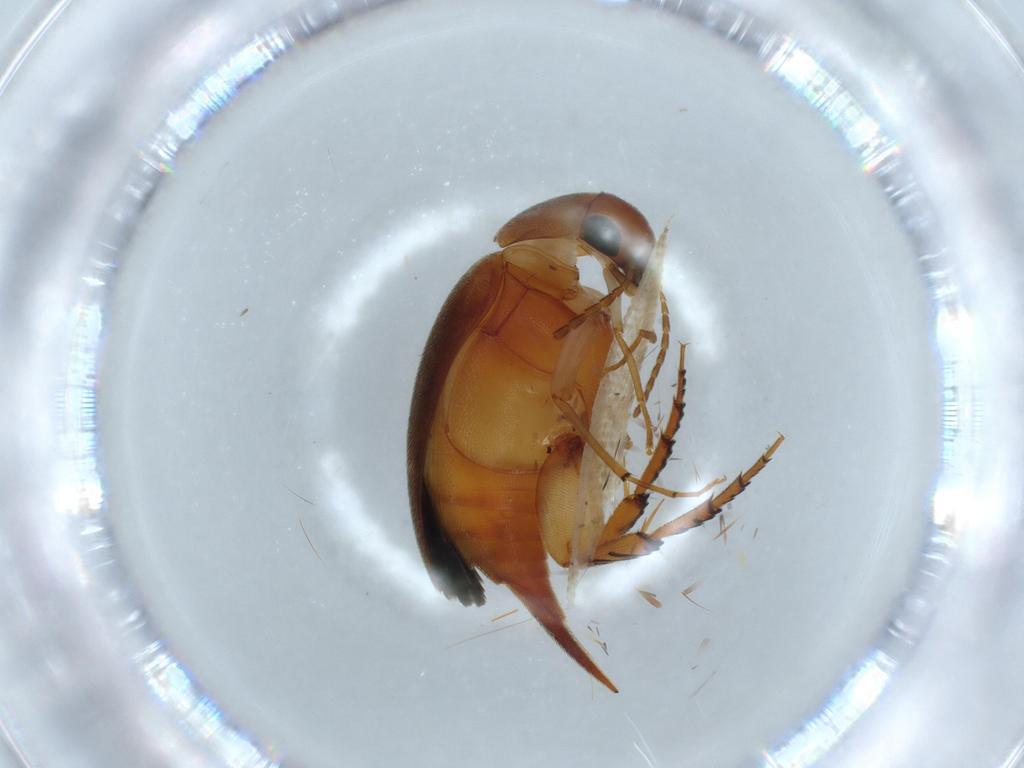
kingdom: Animalia
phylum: Arthropoda
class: Insecta
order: Coleoptera
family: Mordellidae
